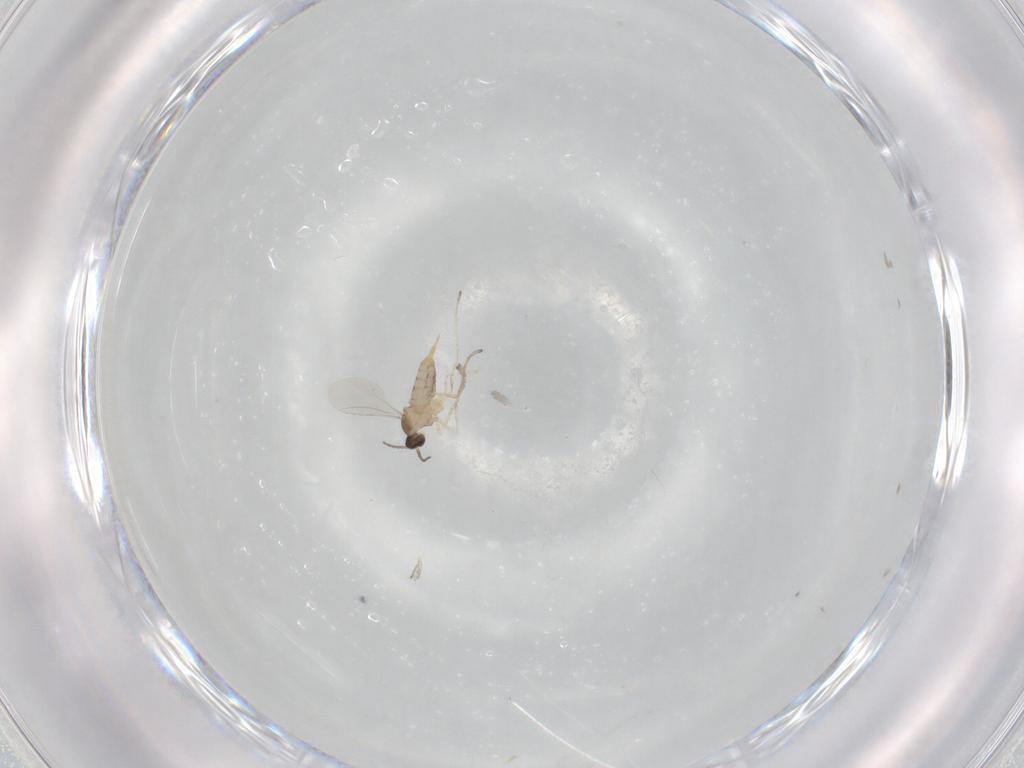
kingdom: Animalia
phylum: Arthropoda
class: Insecta
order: Diptera
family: Cecidomyiidae
